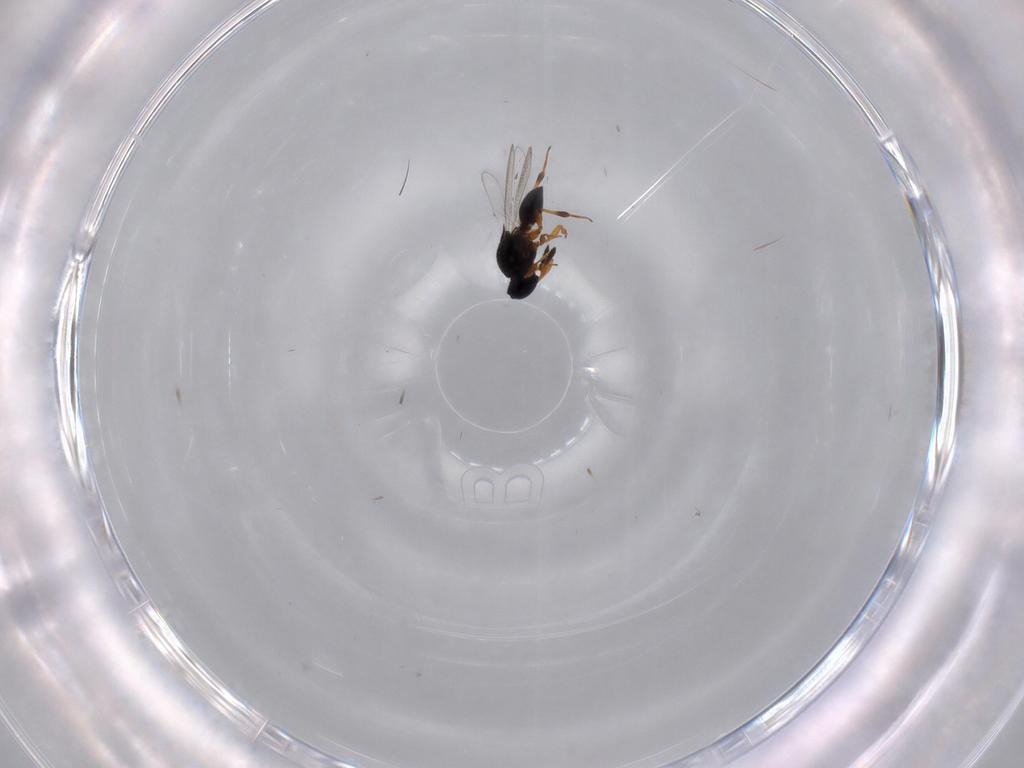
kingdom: Animalia
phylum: Arthropoda
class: Insecta
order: Hymenoptera
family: Platygastridae
